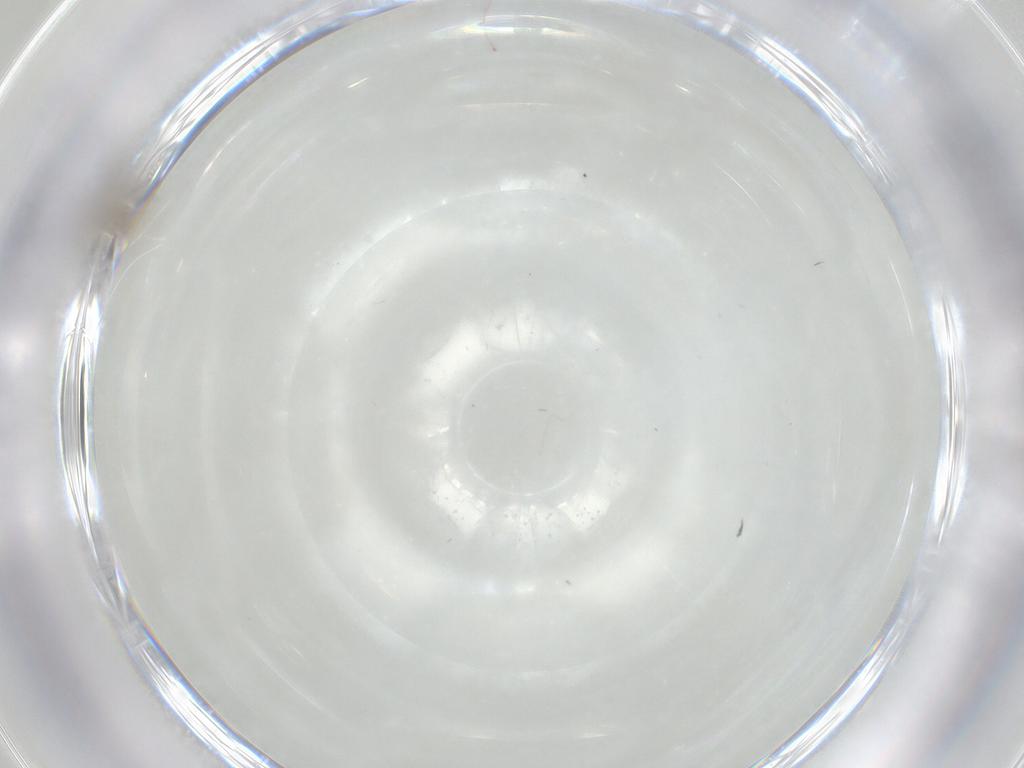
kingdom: Animalia
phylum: Arthropoda
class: Insecta
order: Diptera
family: Cecidomyiidae
